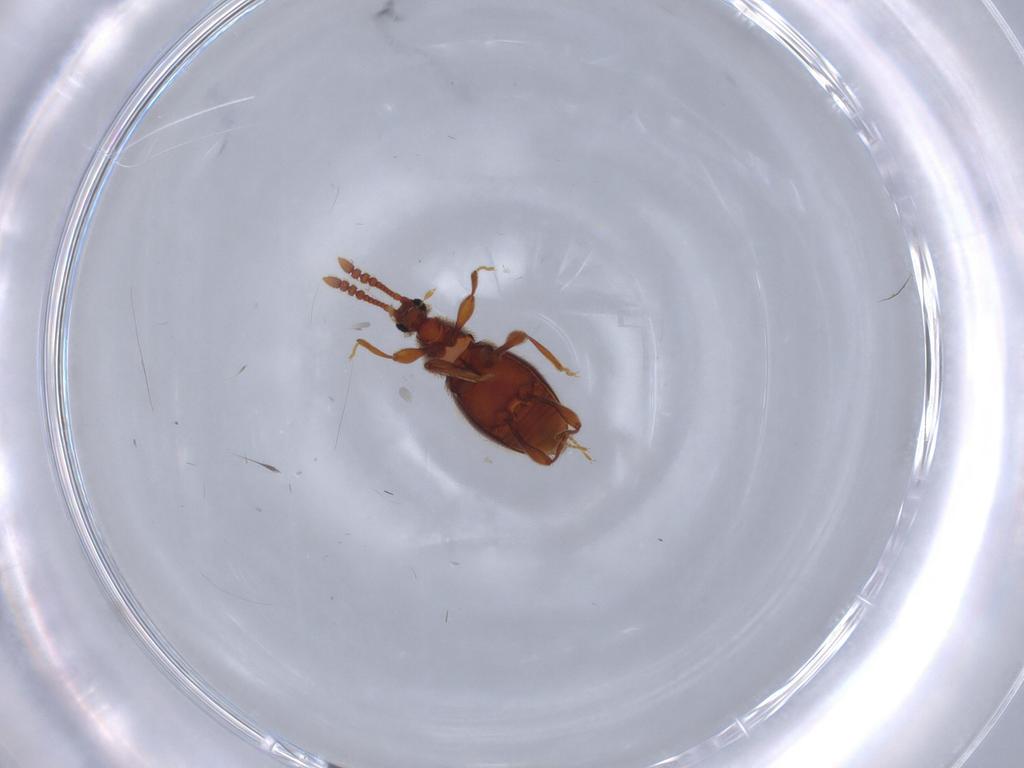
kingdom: Animalia
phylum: Arthropoda
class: Insecta
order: Coleoptera
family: Staphylinidae
